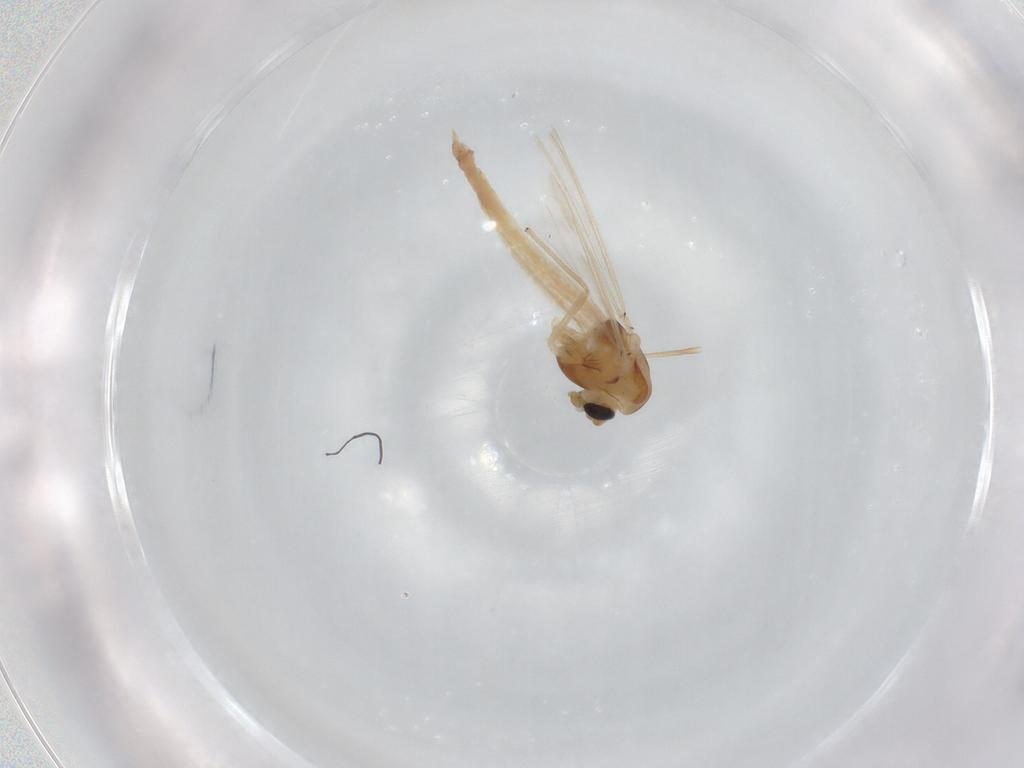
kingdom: Animalia
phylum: Arthropoda
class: Insecta
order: Diptera
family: Chironomidae
